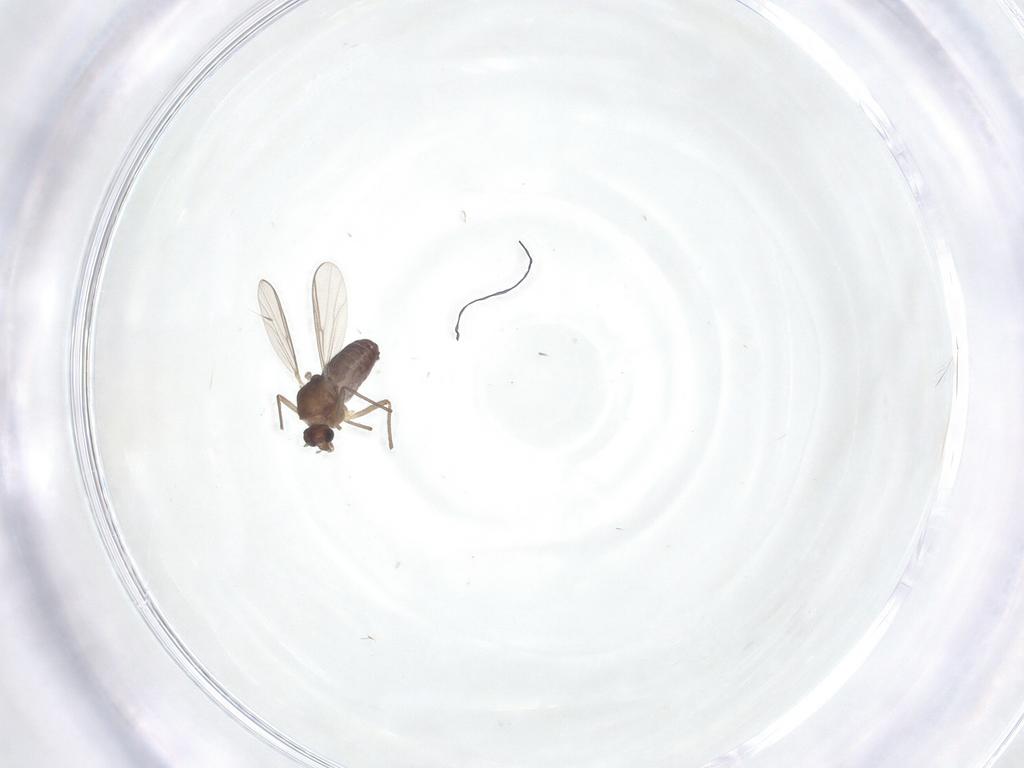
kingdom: Animalia
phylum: Arthropoda
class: Insecta
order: Diptera
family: Chironomidae
